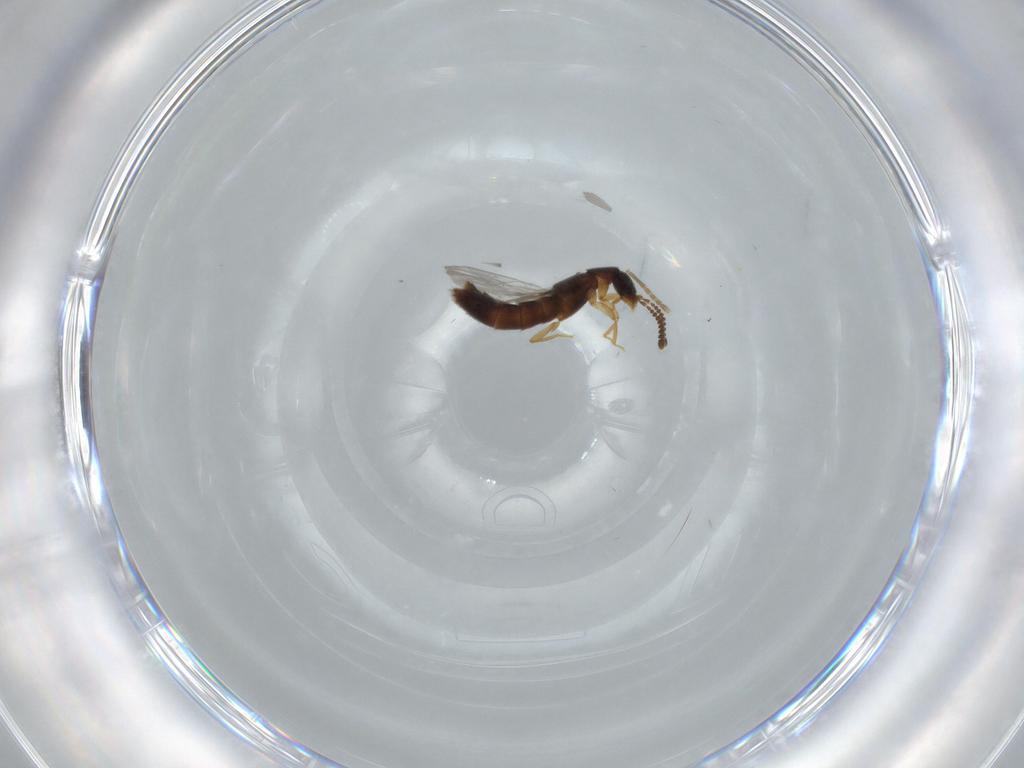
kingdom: Animalia
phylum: Arthropoda
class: Insecta
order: Coleoptera
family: Staphylinidae
